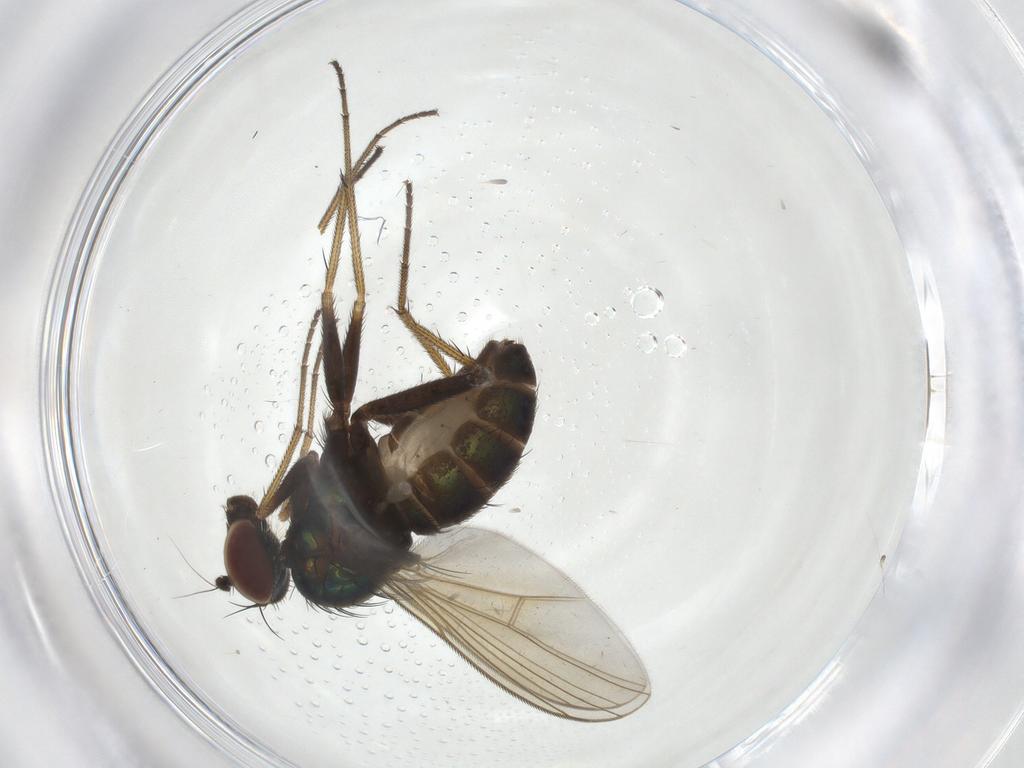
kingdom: Animalia
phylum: Arthropoda
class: Insecta
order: Diptera
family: Dolichopodidae
